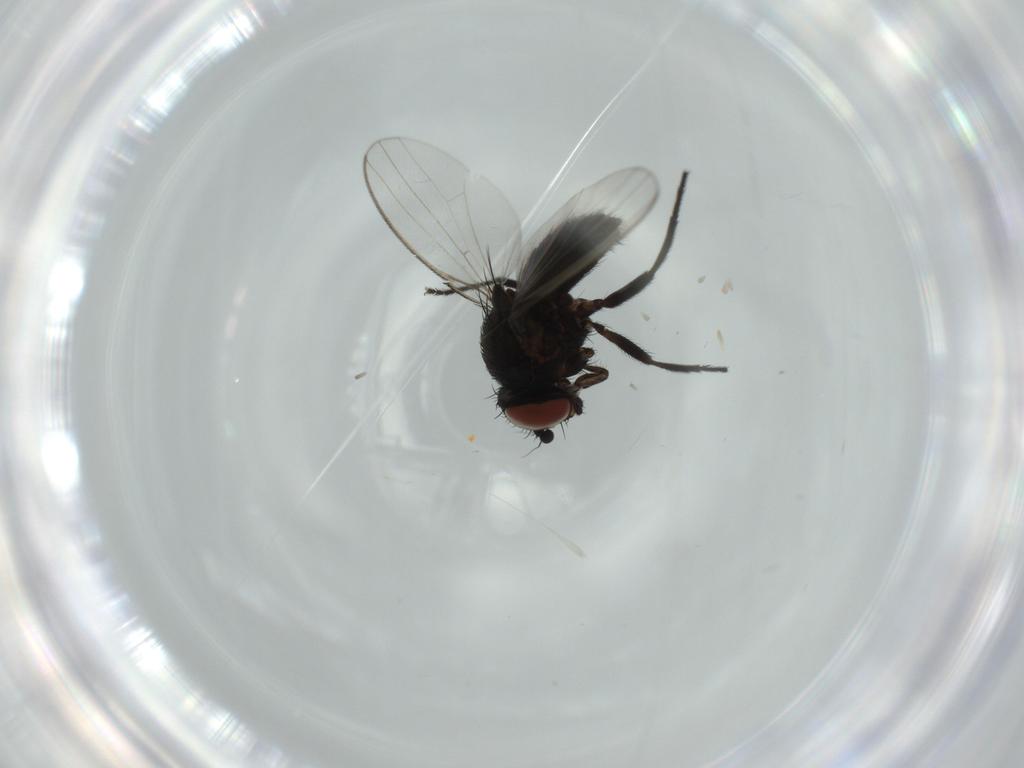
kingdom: Animalia
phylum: Arthropoda
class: Insecta
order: Diptera
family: Milichiidae
